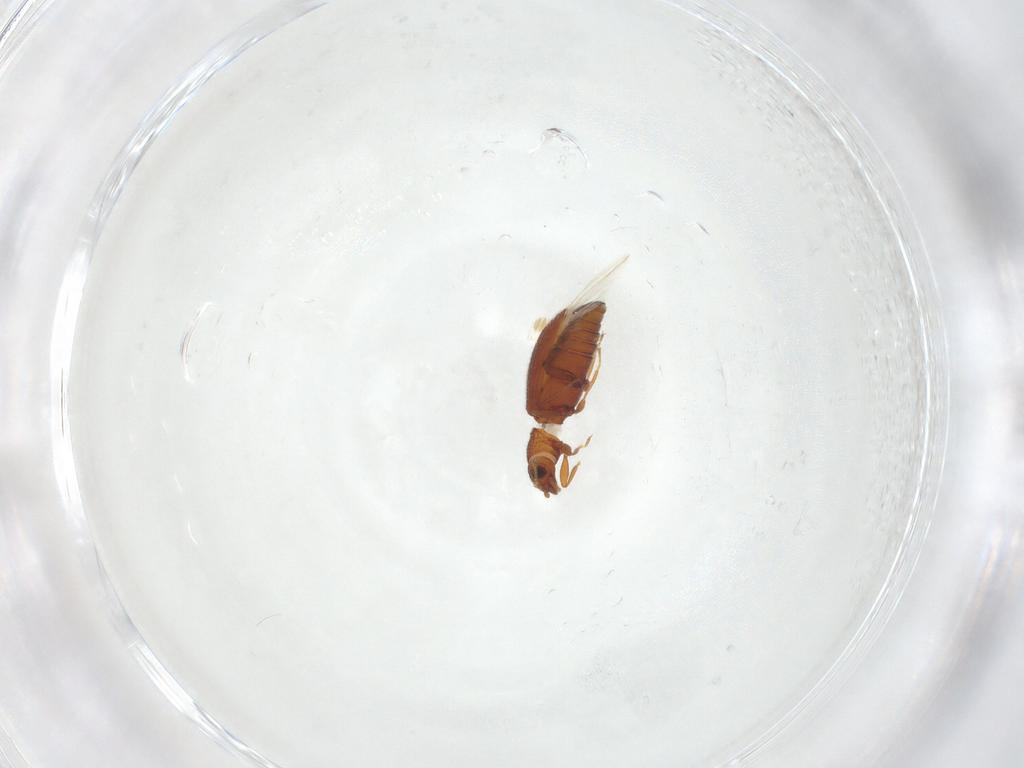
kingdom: Animalia
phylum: Arthropoda
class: Insecta
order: Coleoptera
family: Latridiidae
